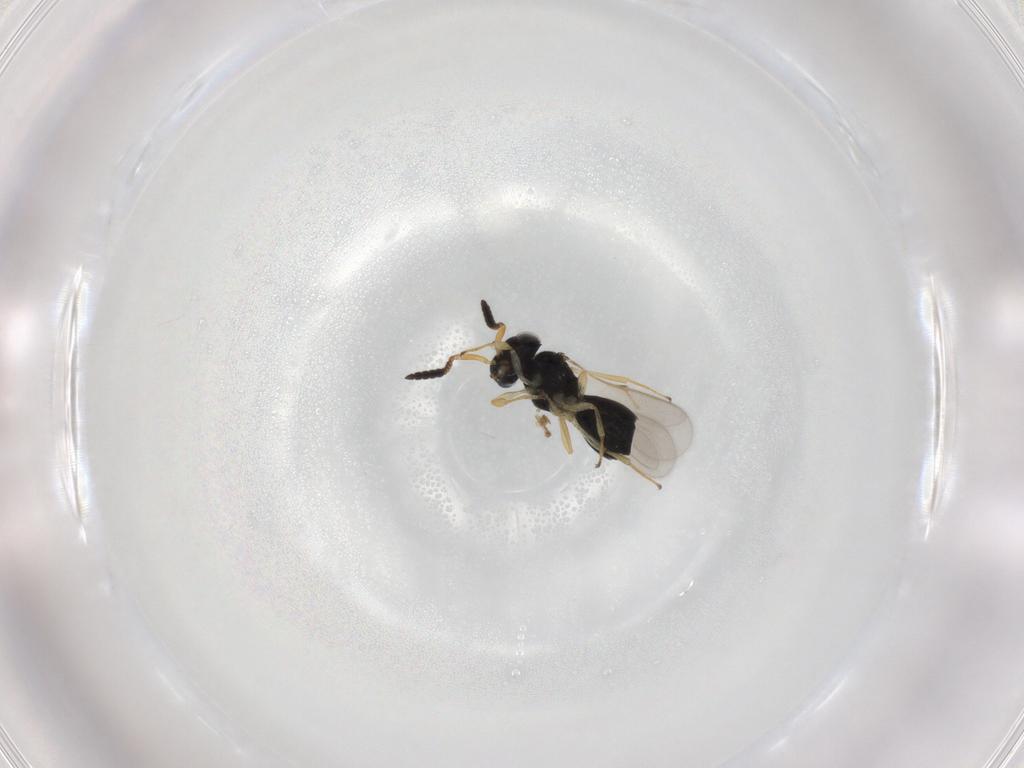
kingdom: Animalia
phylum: Arthropoda
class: Insecta
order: Hymenoptera
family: Scelionidae
